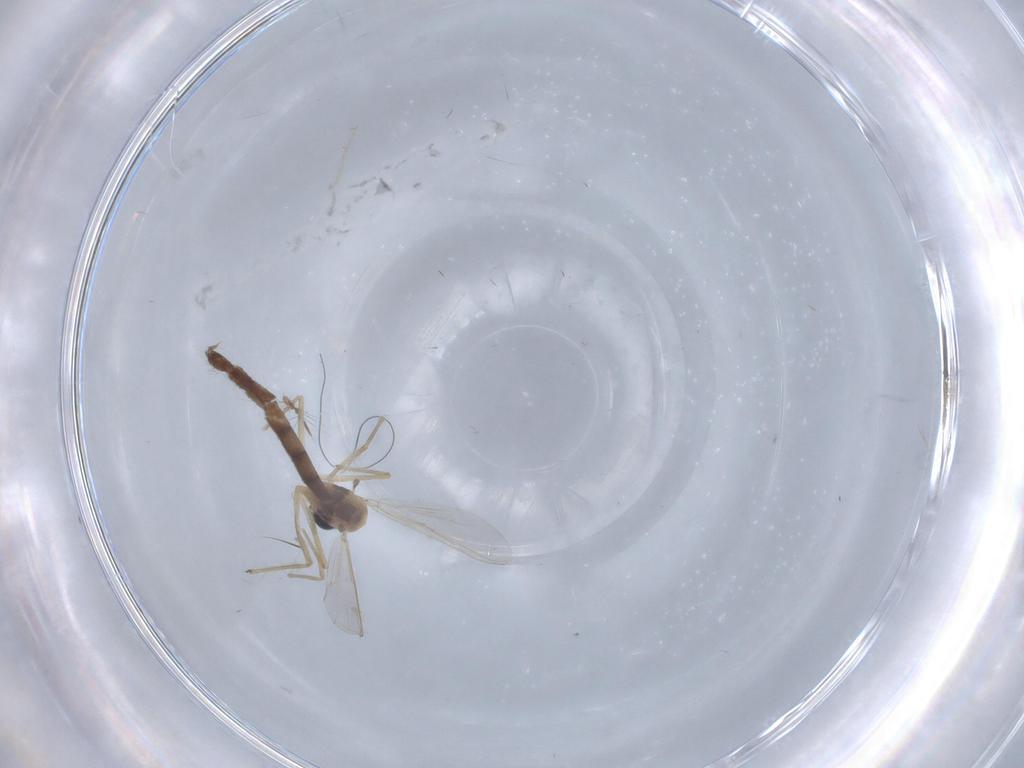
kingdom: Animalia
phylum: Arthropoda
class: Insecta
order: Diptera
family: Chironomidae
